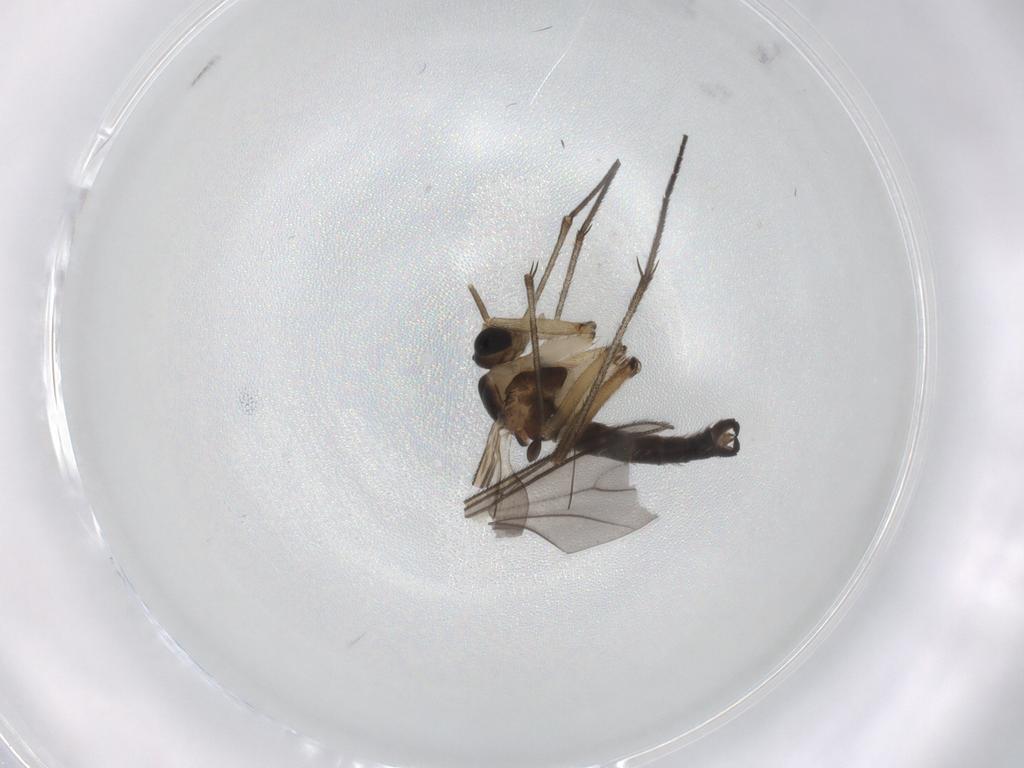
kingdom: Animalia
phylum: Arthropoda
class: Insecta
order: Diptera
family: Sciaridae
